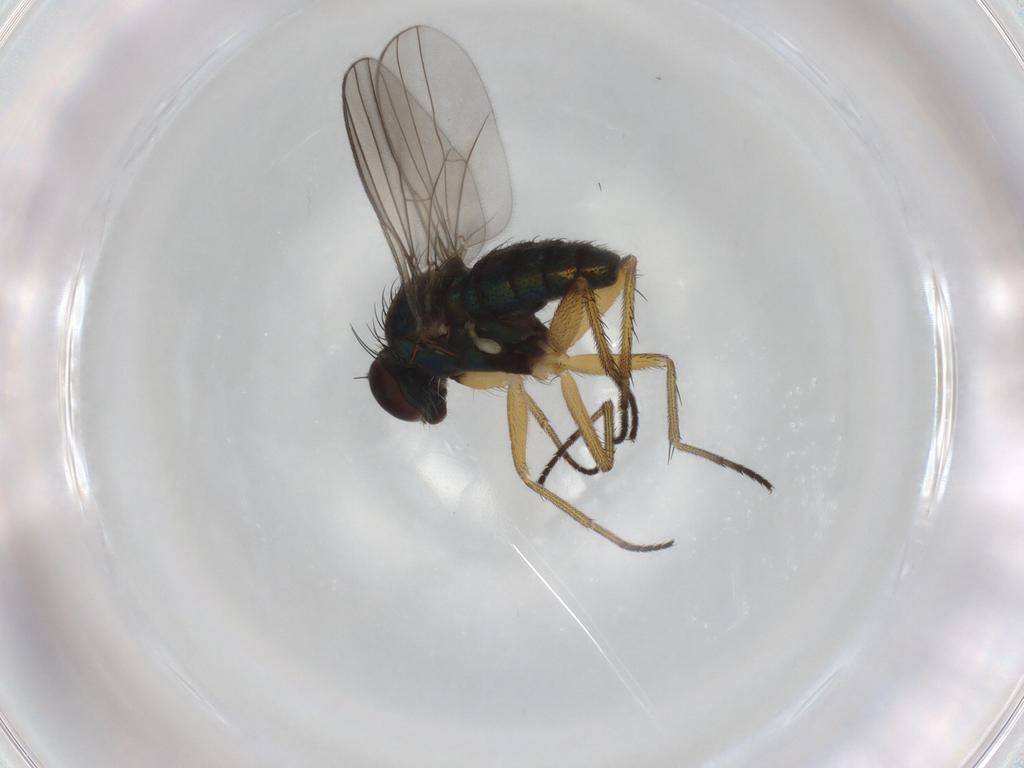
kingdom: Animalia
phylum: Arthropoda
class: Insecta
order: Diptera
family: Dolichopodidae
